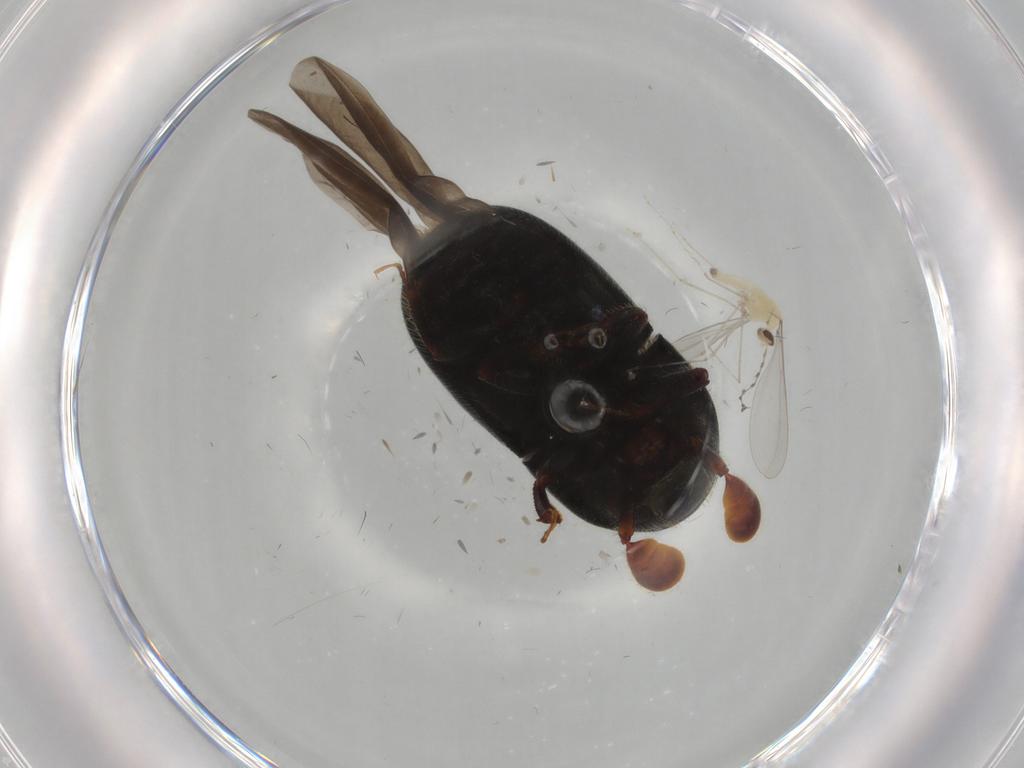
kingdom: Animalia
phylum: Arthropoda
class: Insecta
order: Diptera
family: Cecidomyiidae
